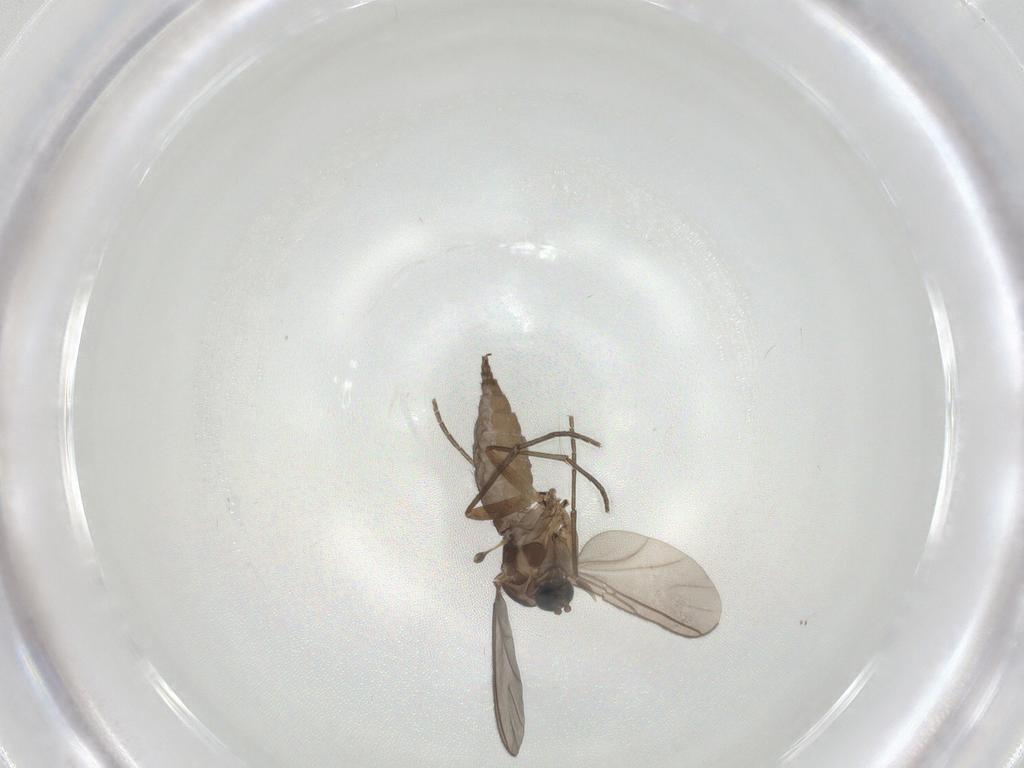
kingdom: Animalia
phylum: Arthropoda
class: Insecta
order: Diptera
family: Sciaridae
